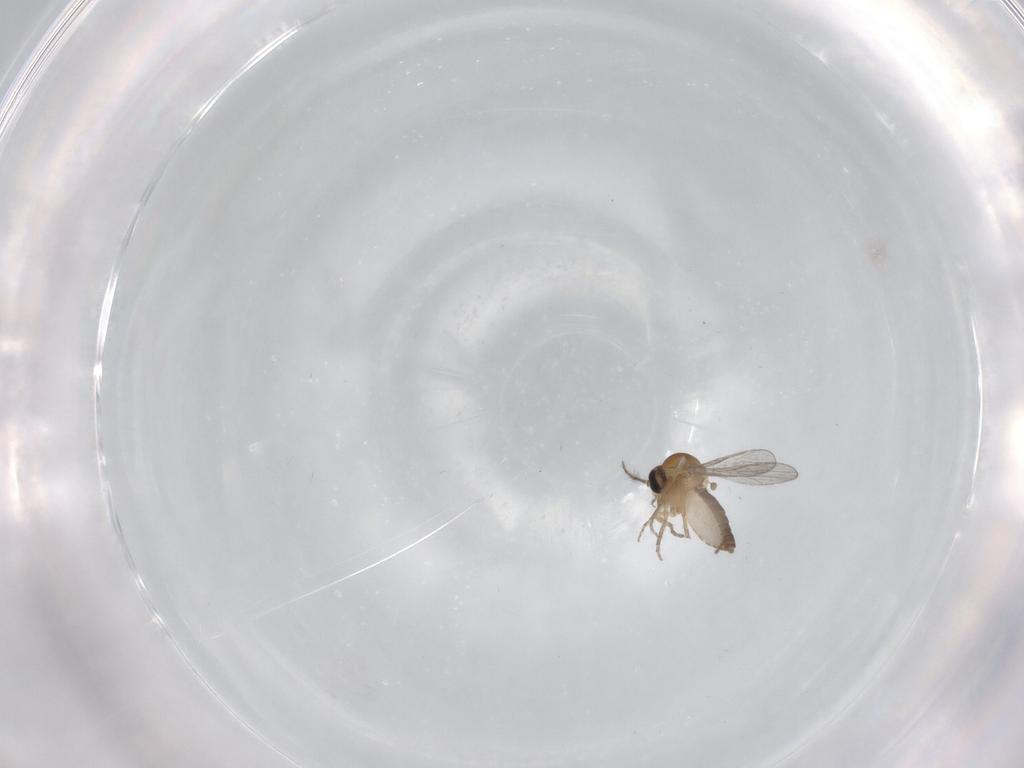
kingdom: Animalia
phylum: Arthropoda
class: Insecta
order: Diptera
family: Ceratopogonidae
